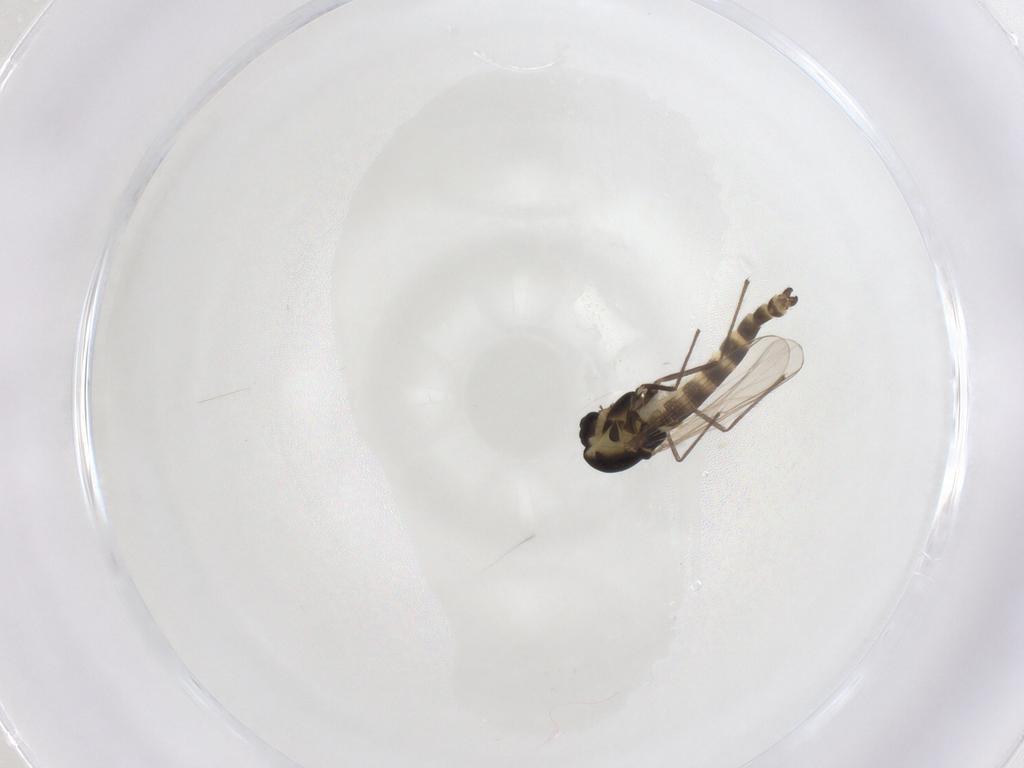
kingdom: Animalia
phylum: Arthropoda
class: Insecta
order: Diptera
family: Chironomidae
